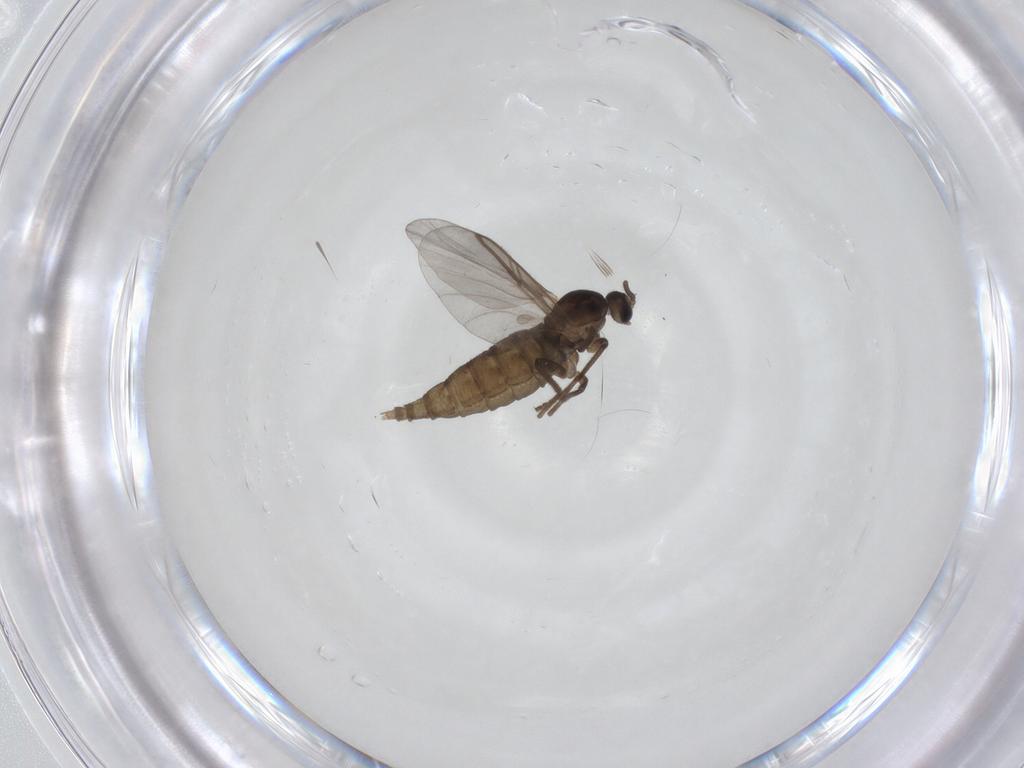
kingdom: Animalia
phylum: Arthropoda
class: Insecta
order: Diptera
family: Cecidomyiidae
